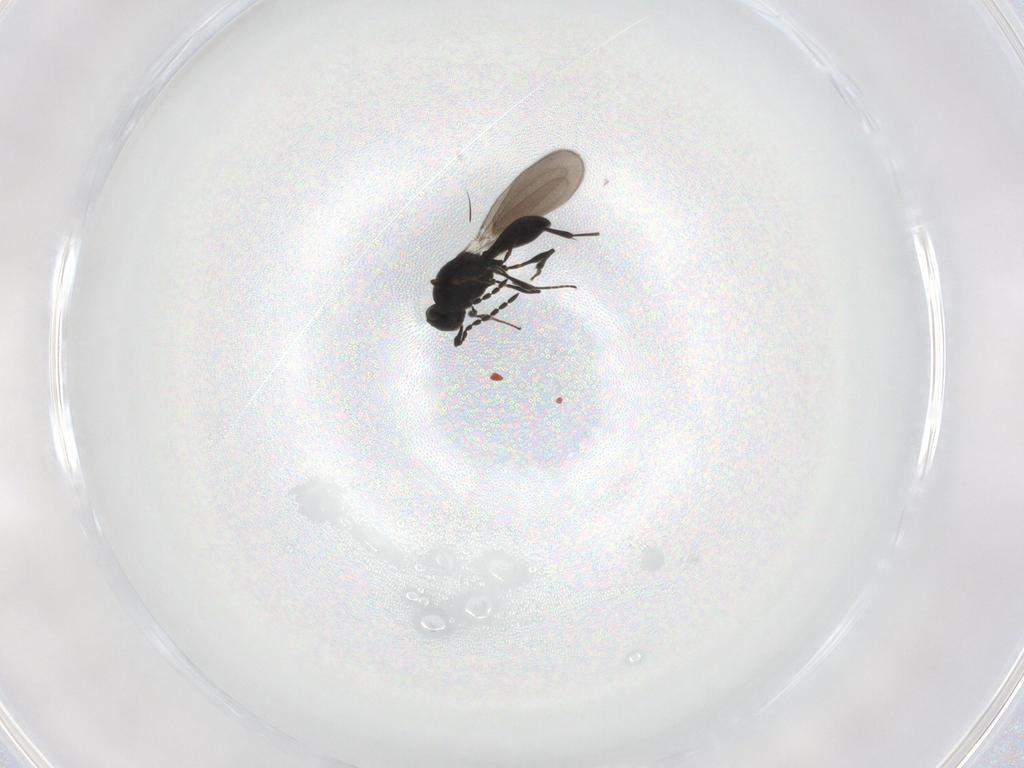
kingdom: Animalia
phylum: Arthropoda
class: Insecta
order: Hymenoptera
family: Platygastridae
